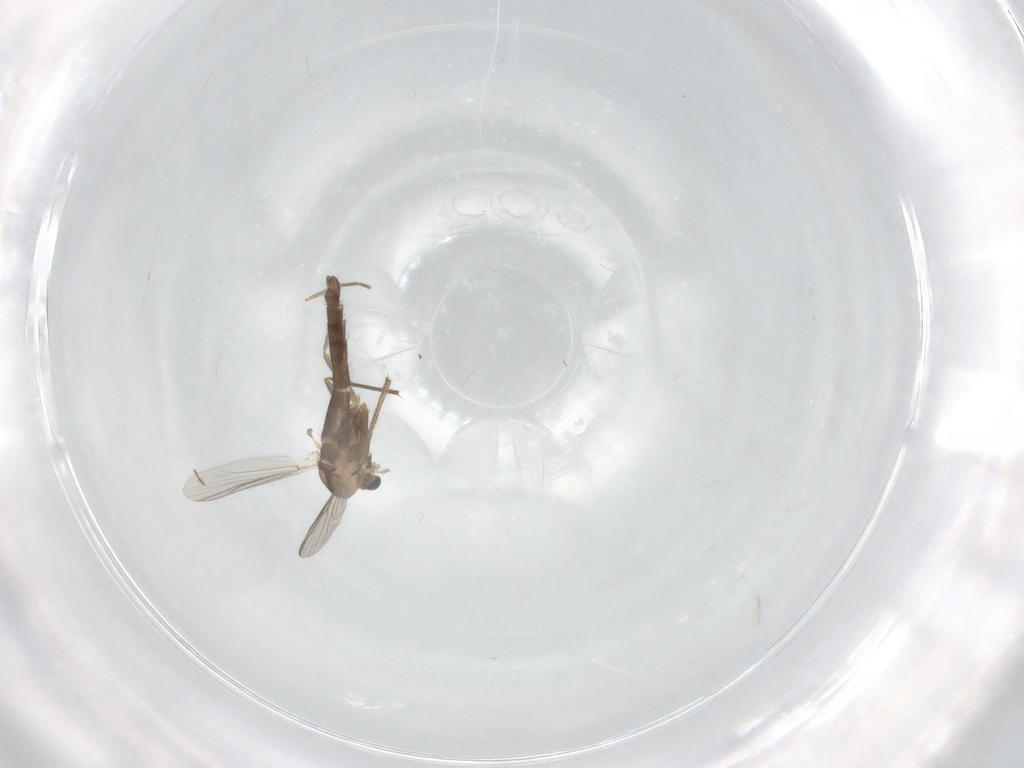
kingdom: Animalia
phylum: Arthropoda
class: Insecta
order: Diptera
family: Chironomidae
